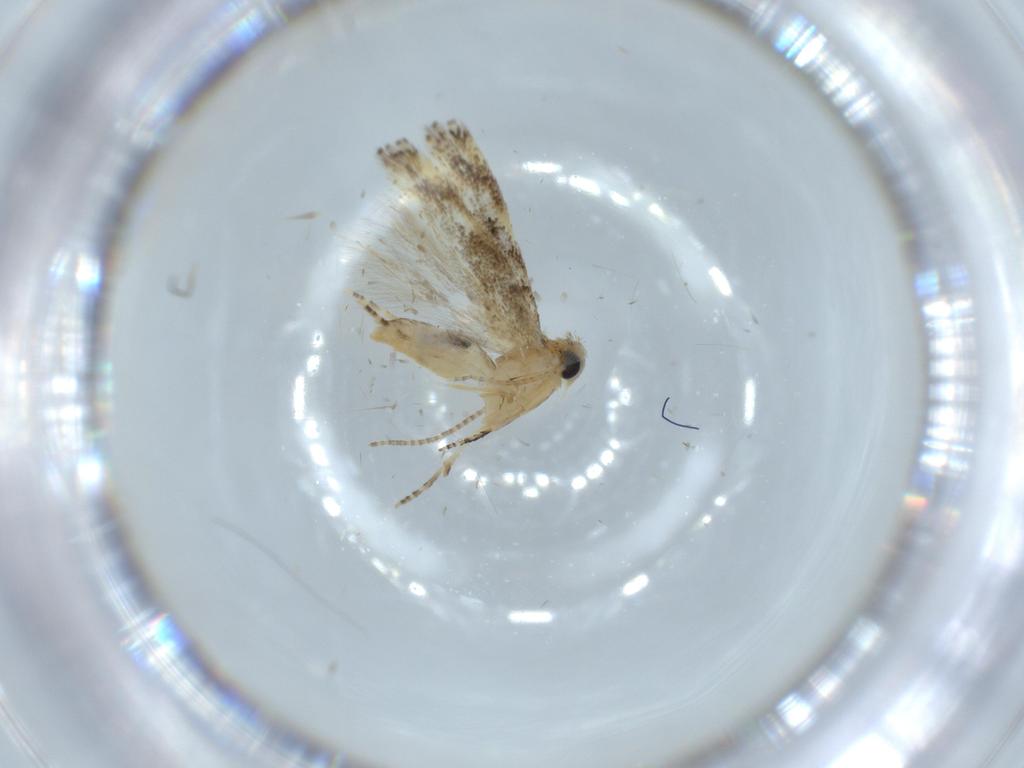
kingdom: Animalia
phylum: Arthropoda
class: Insecta
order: Lepidoptera
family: Bucculatricidae
